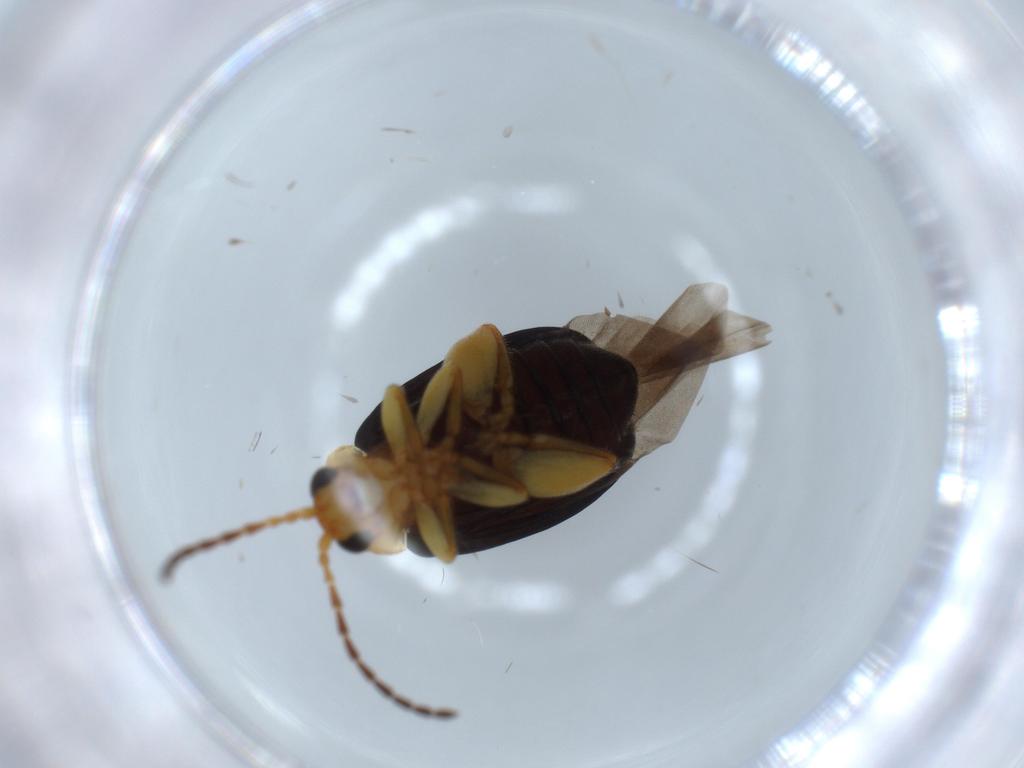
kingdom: Animalia
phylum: Arthropoda
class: Insecta
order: Coleoptera
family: Chrysomelidae
